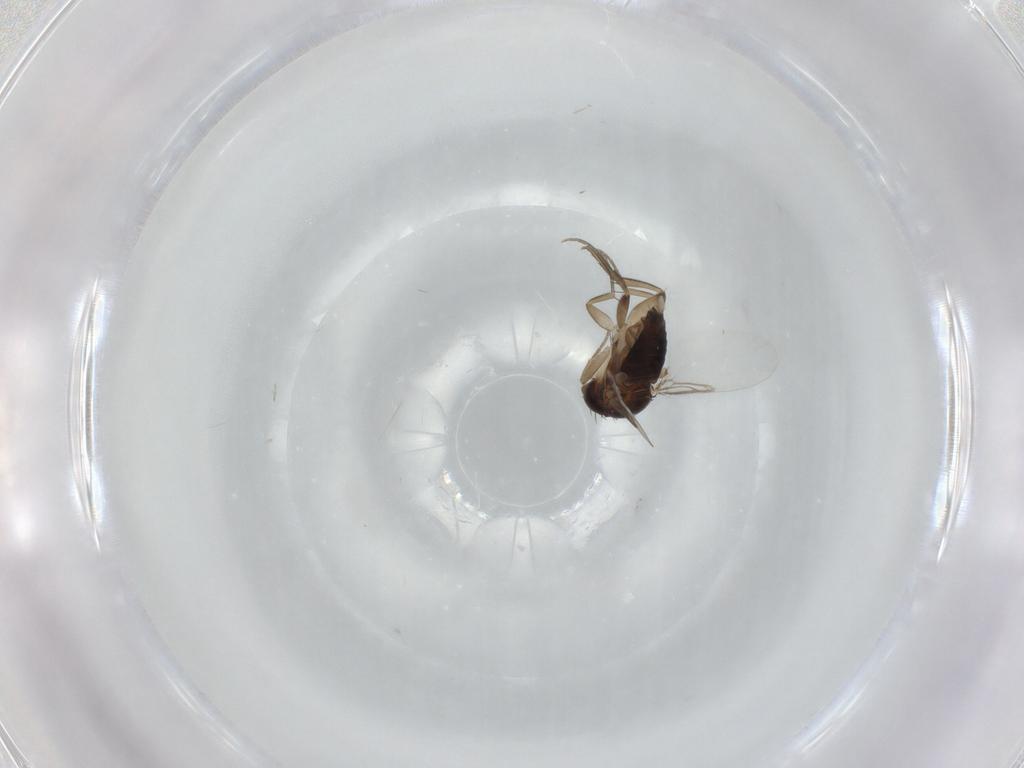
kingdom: Animalia
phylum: Arthropoda
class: Insecta
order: Diptera
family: Phoridae
